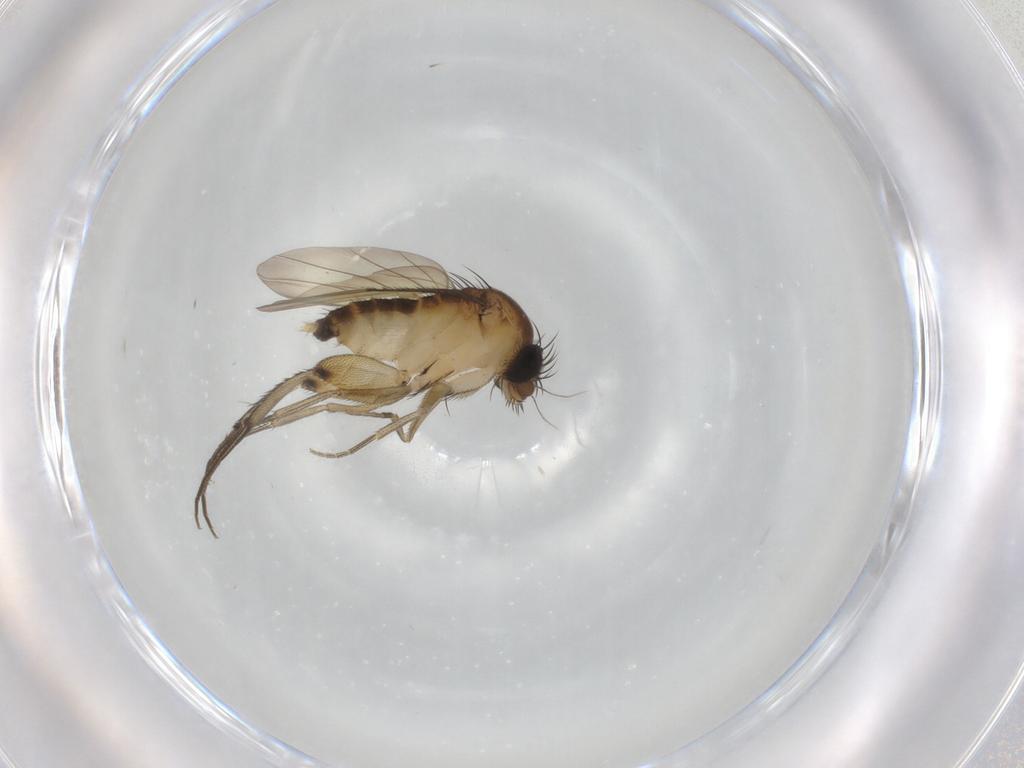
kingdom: Animalia
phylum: Arthropoda
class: Insecta
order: Diptera
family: Phoridae
